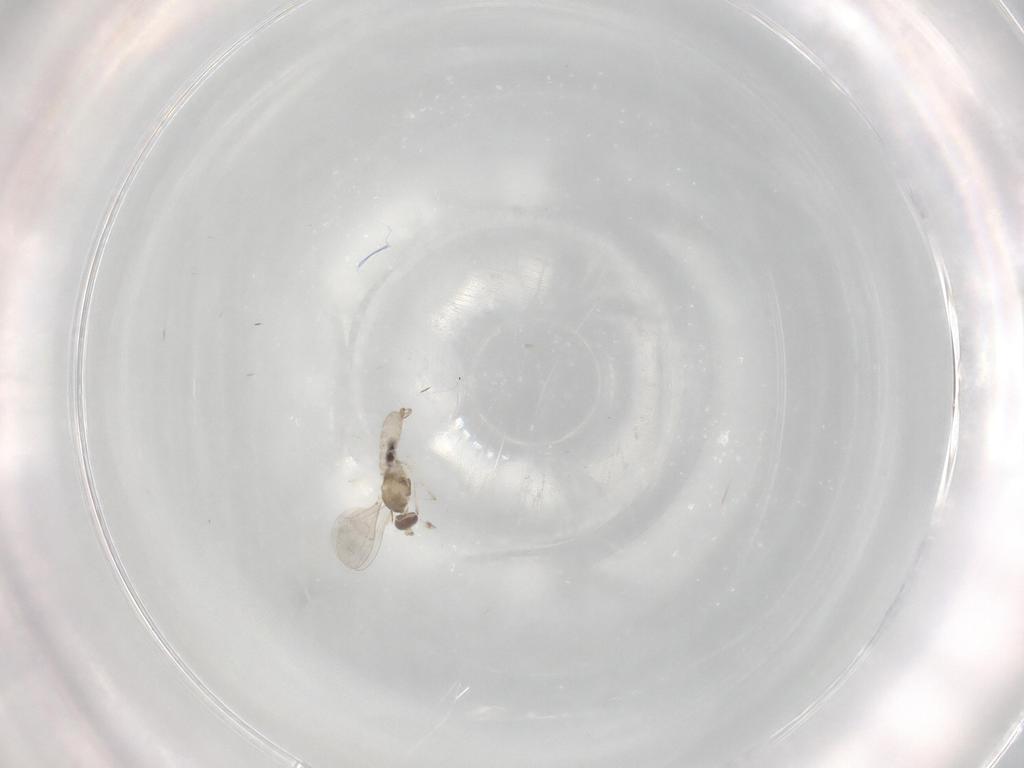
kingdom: Animalia
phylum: Arthropoda
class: Insecta
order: Diptera
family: Cecidomyiidae
